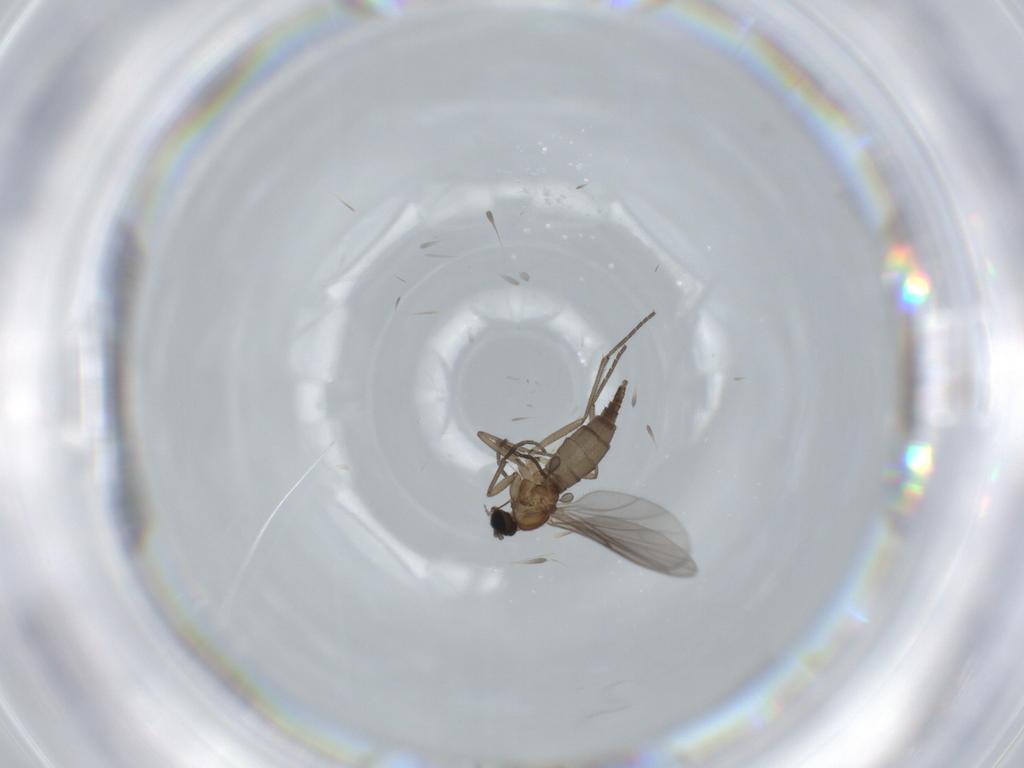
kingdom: Animalia
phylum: Arthropoda
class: Insecta
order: Diptera
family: Sciaridae
